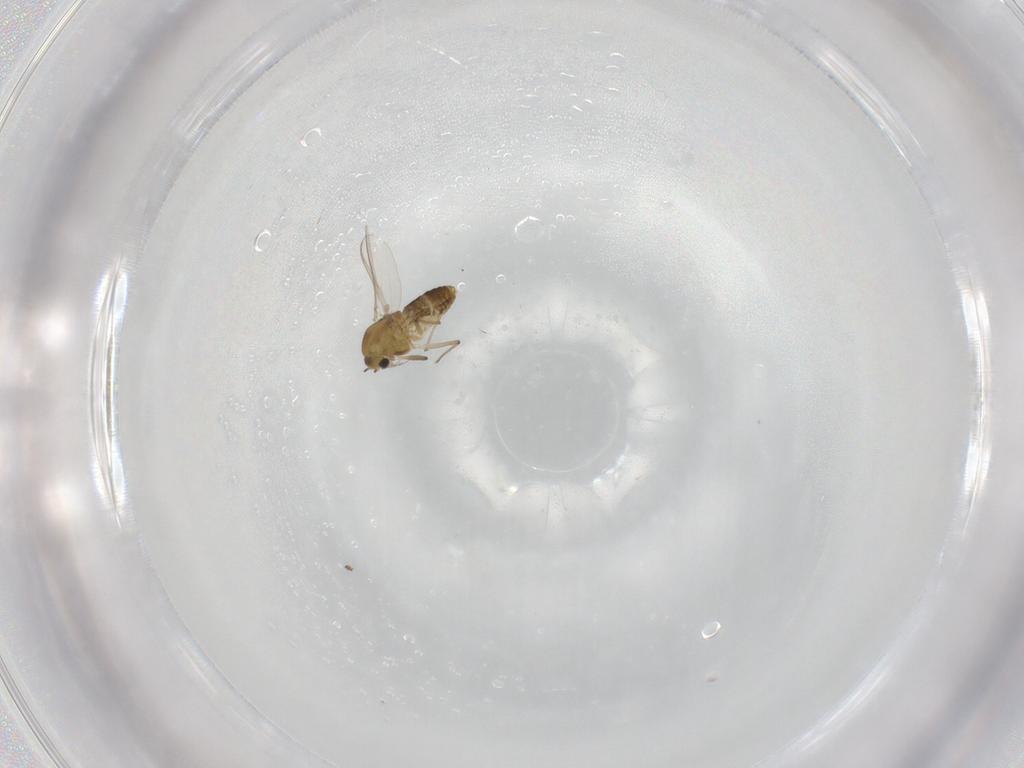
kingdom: Animalia
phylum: Arthropoda
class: Insecta
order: Diptera
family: Chironomidae
